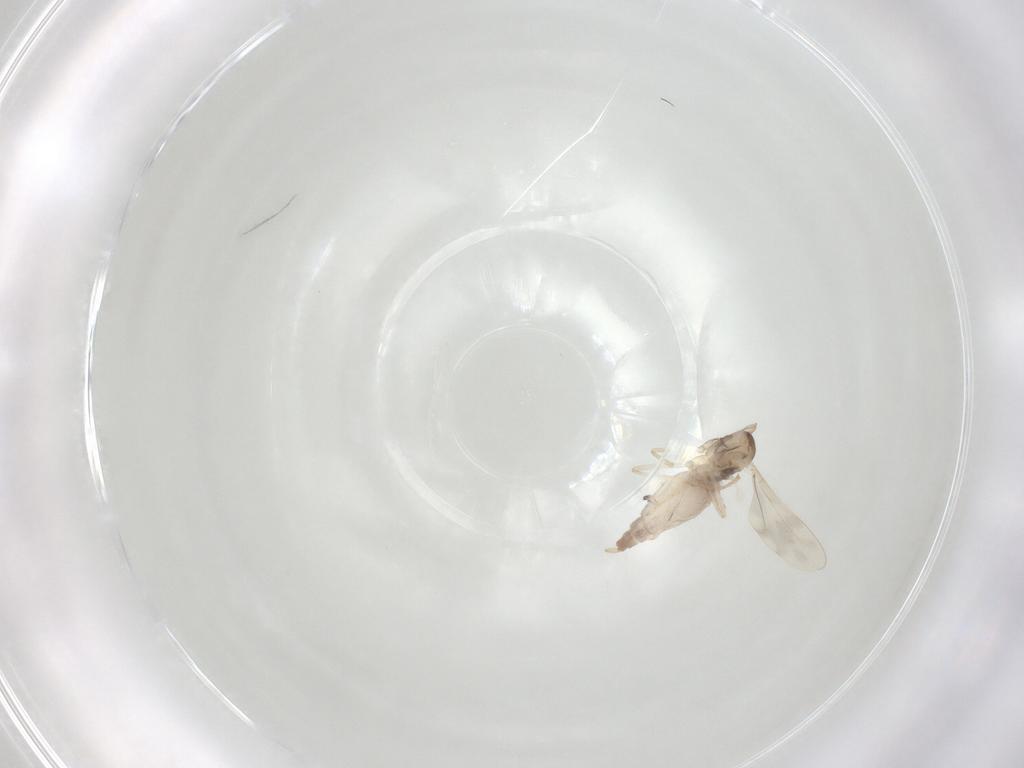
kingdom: Animalia
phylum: Arthropoda
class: Insecta
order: Diptera
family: Cecidomyiidae
